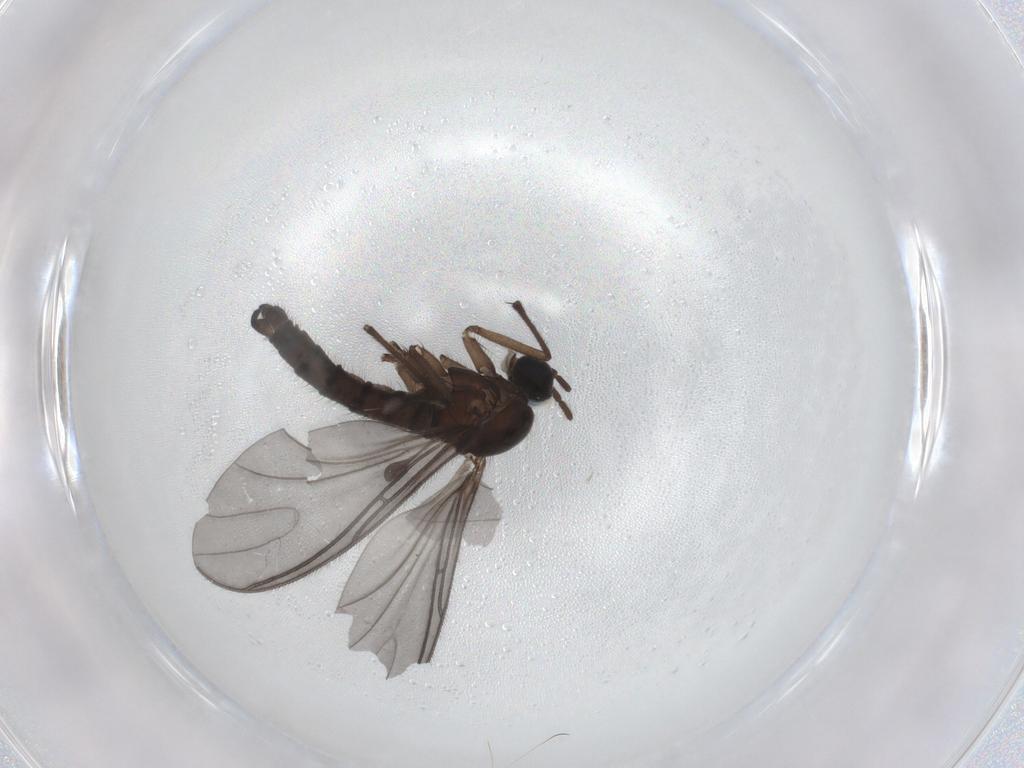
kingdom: Animalia
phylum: Arthropoda
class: Insecta
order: Diptera
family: Sciaridae
